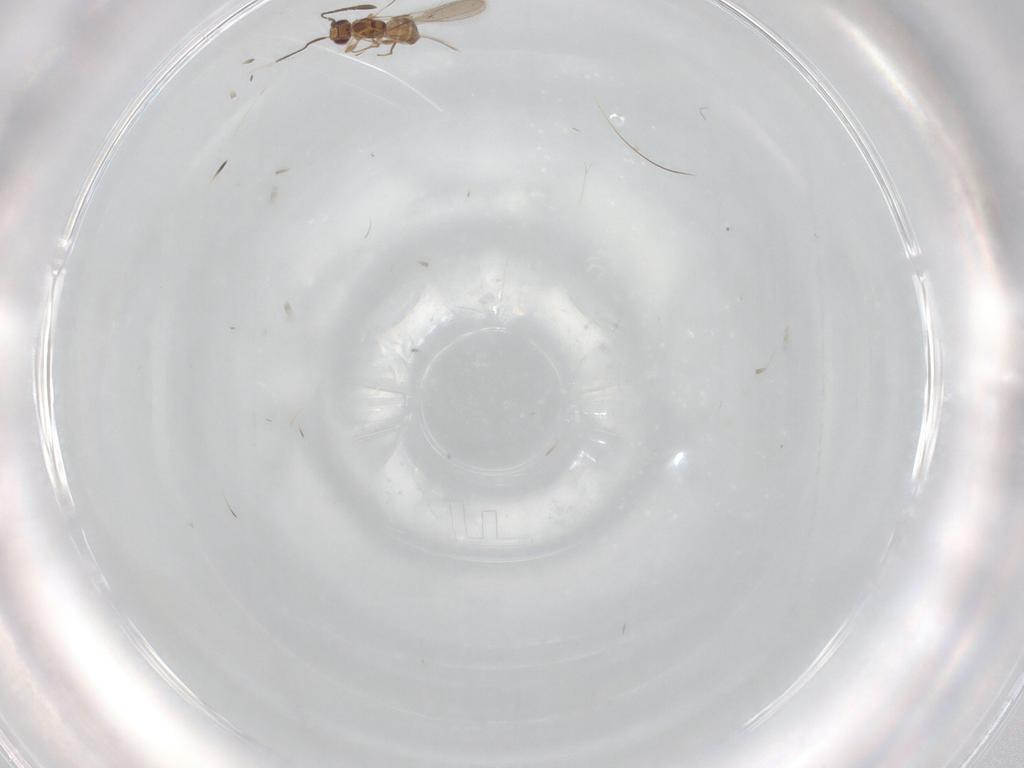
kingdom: Animalia
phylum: Arthropoda
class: Insecta
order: Hymenoptera
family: Mymaridae
